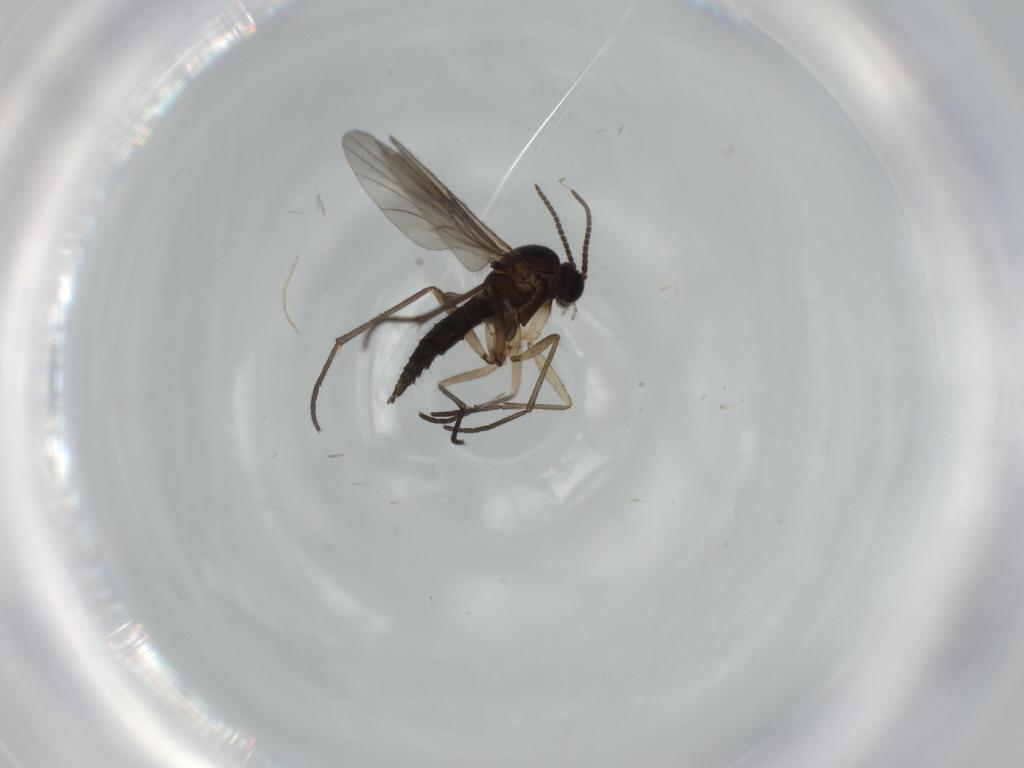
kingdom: Animalia
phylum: Arthropoda
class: Insecta
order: Diptera
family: Sciaridae
